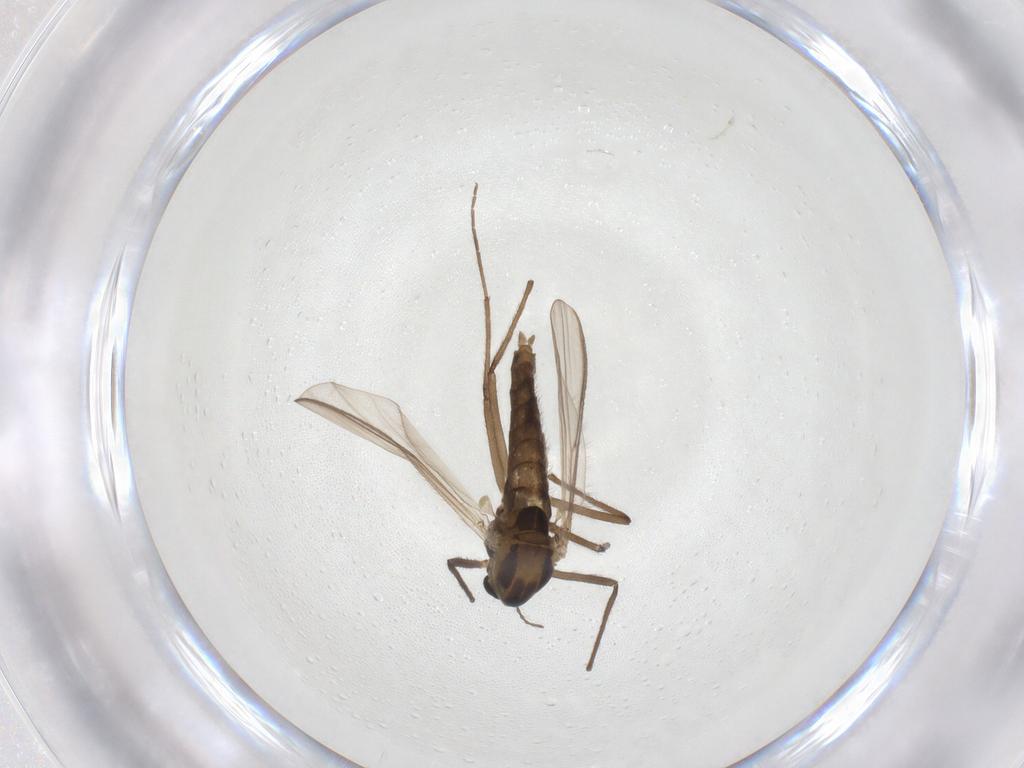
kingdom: Animalia
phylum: Arthropoda
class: Insecta
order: Diptera
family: Chironomidae
